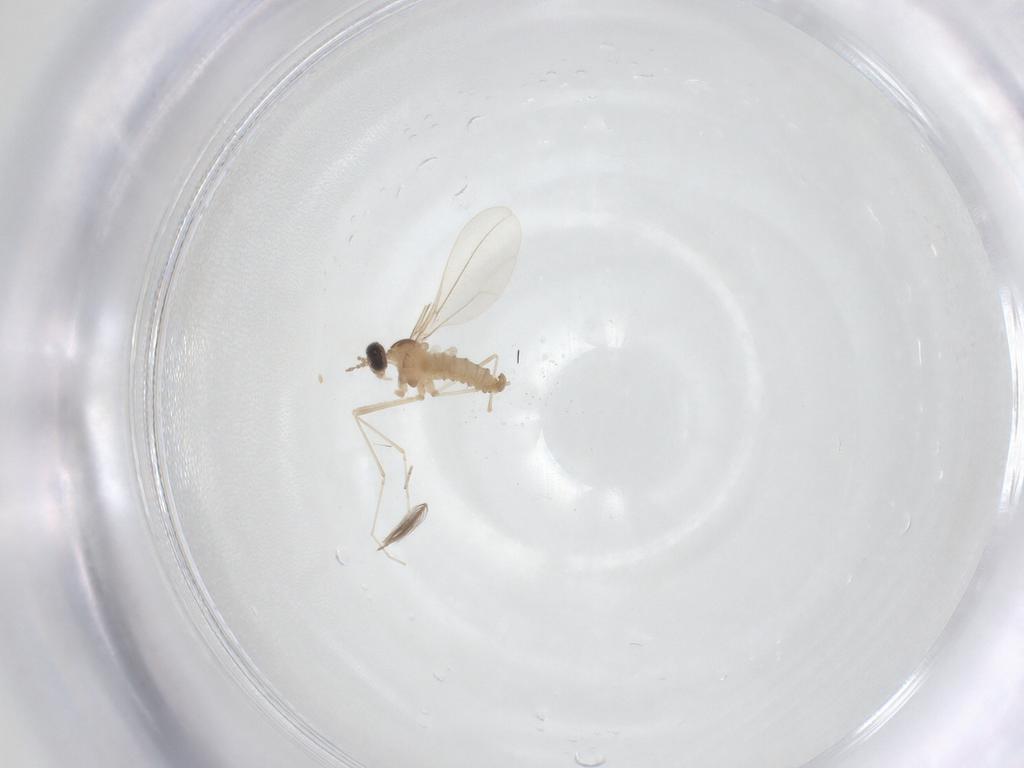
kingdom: Animalia
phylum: Arthropoda
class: Insecta
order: Diptera
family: Cecidomyiidae
